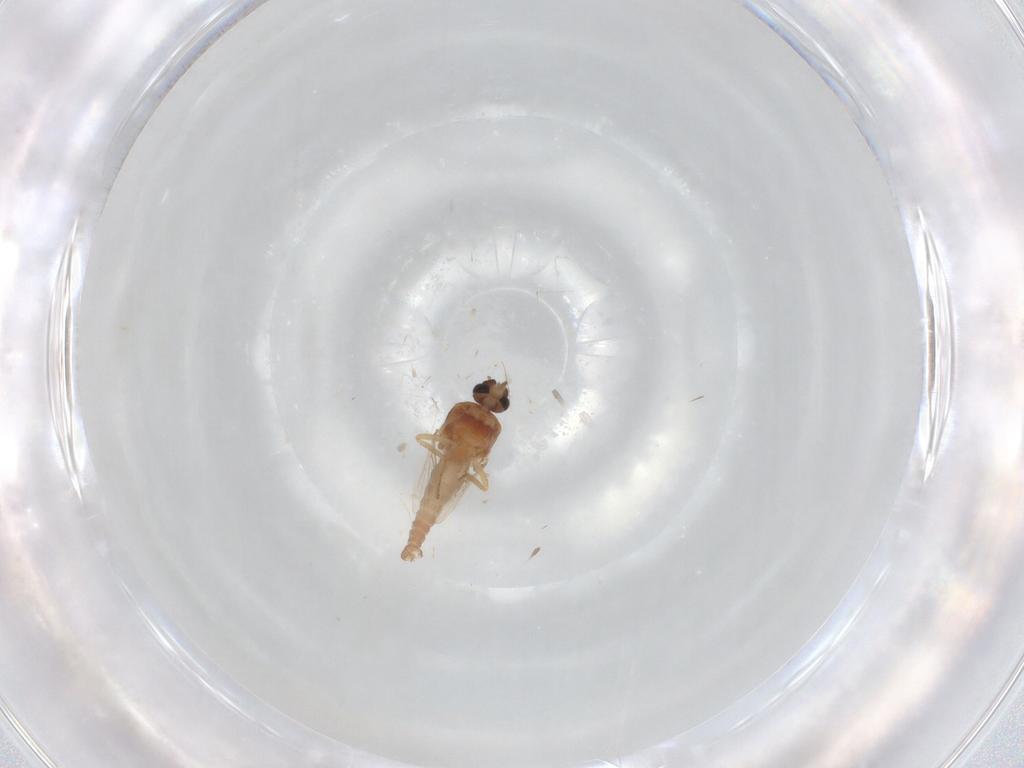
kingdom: Animalia
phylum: Arthropoda
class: Insecta
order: Diptera
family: Ceratopogonidae
